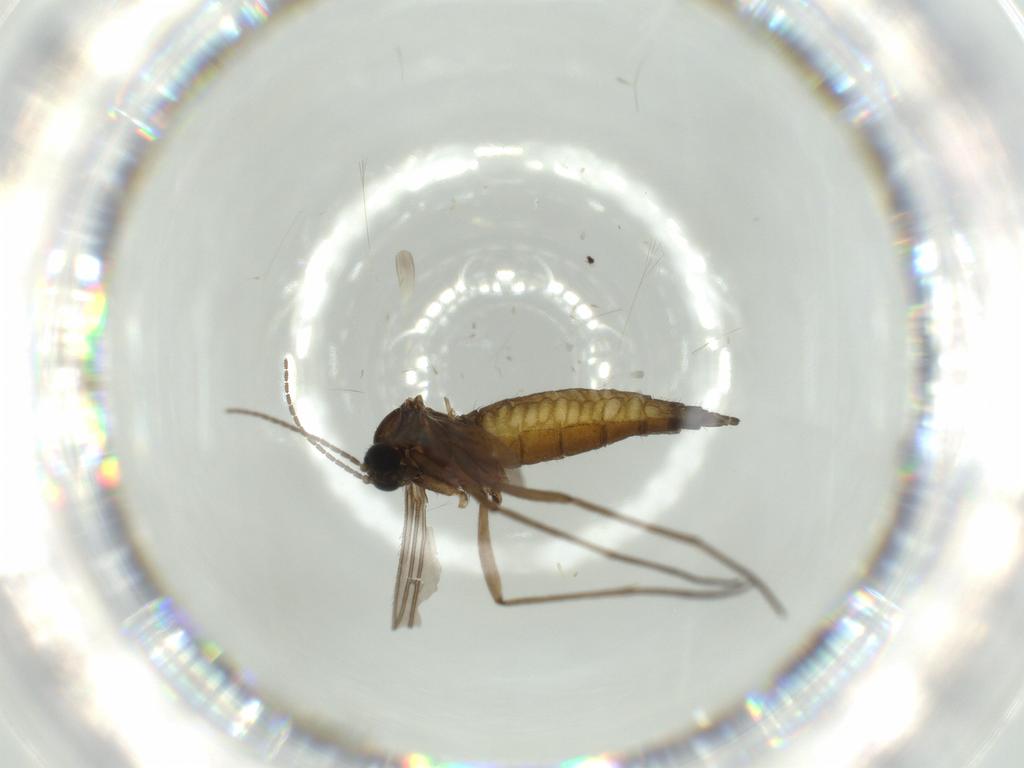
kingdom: Animalia
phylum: Arthropoda
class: Insecta
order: Diptera
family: Sciaridae
